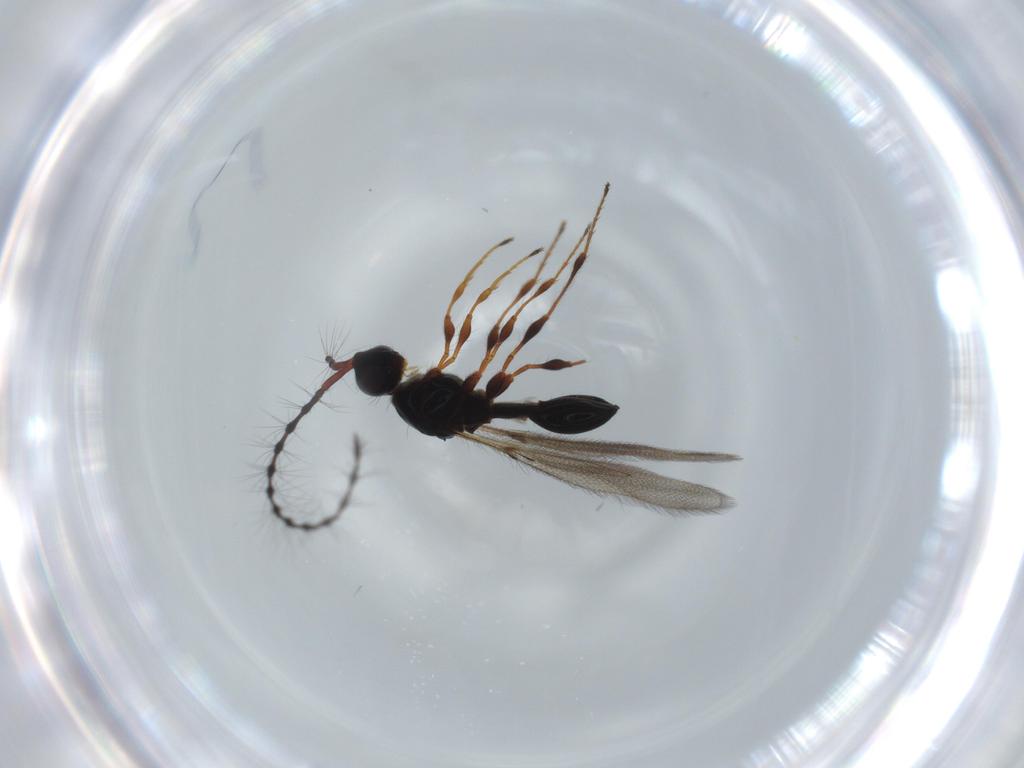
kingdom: Animalia
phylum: Arthropoda
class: Insecta
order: Hymenoptera
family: Diapriidae
